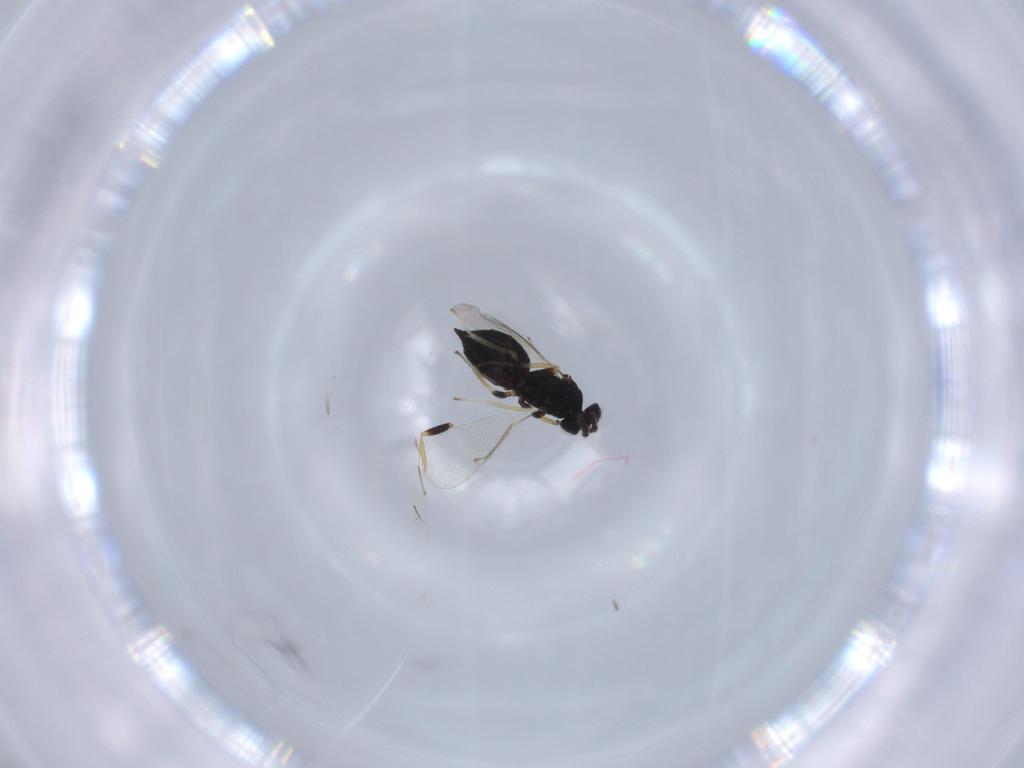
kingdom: Animalia
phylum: Arthropoda
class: Insecta
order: Hymenoptera
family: Eulophidae
